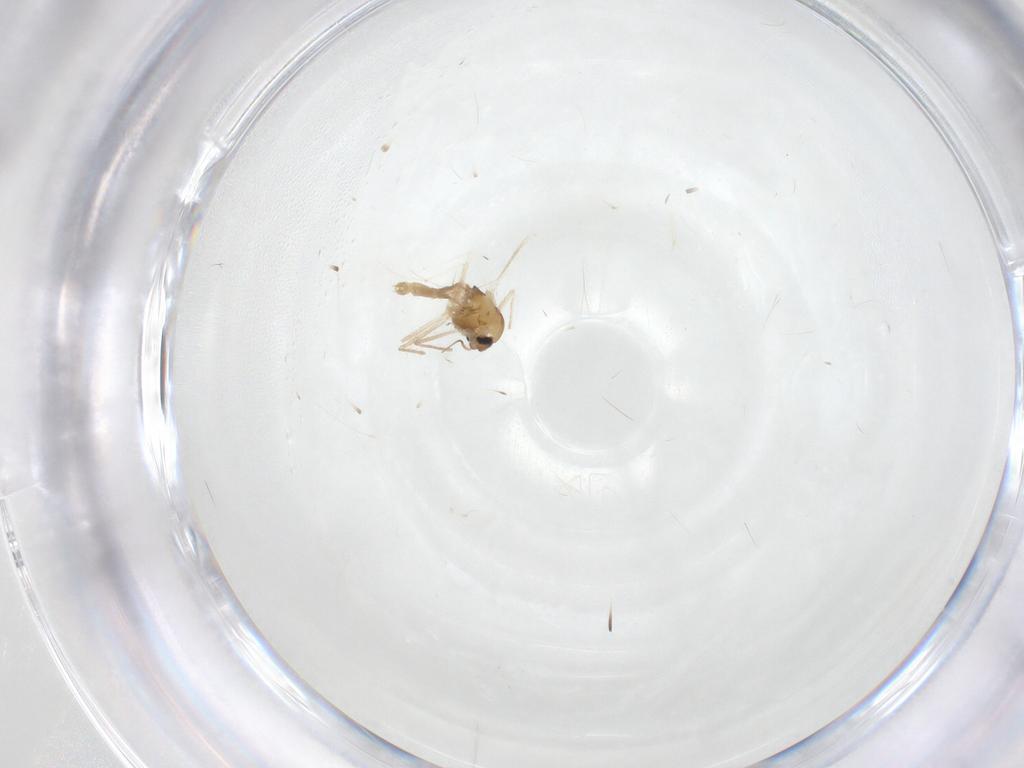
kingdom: Animalia
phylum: Arthropoda
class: Insecta
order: Diptera
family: Chironomidae
